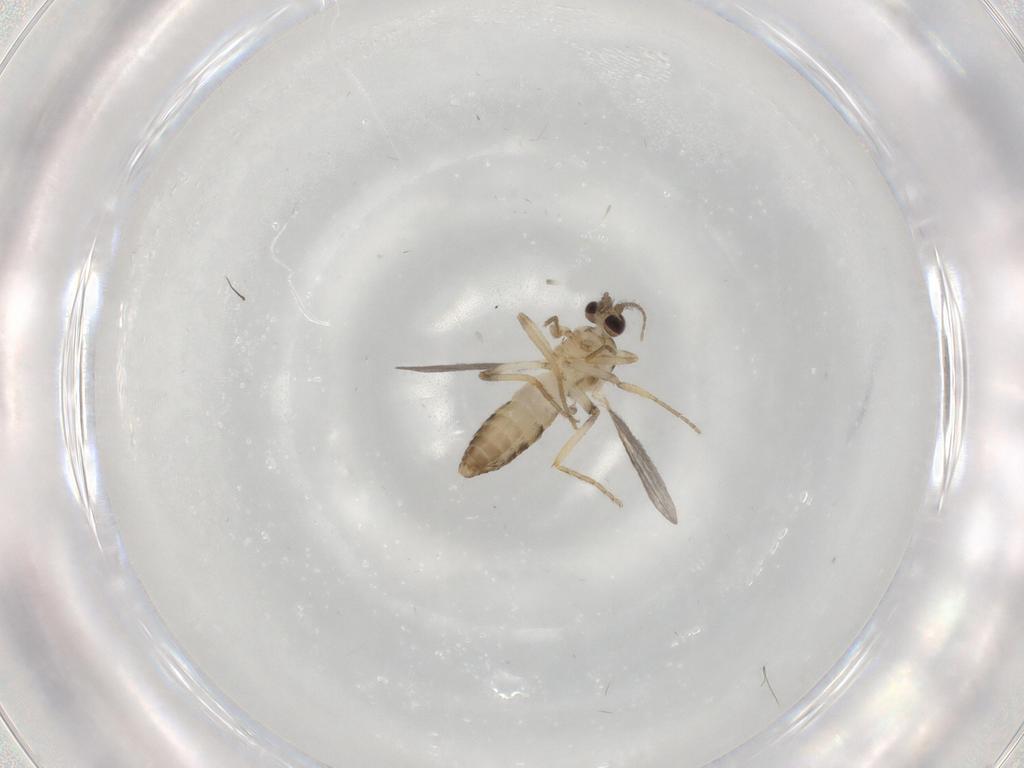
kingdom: Animalia
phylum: Arthropoda
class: Insecta
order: Diptera
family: Ceratopogonidae
